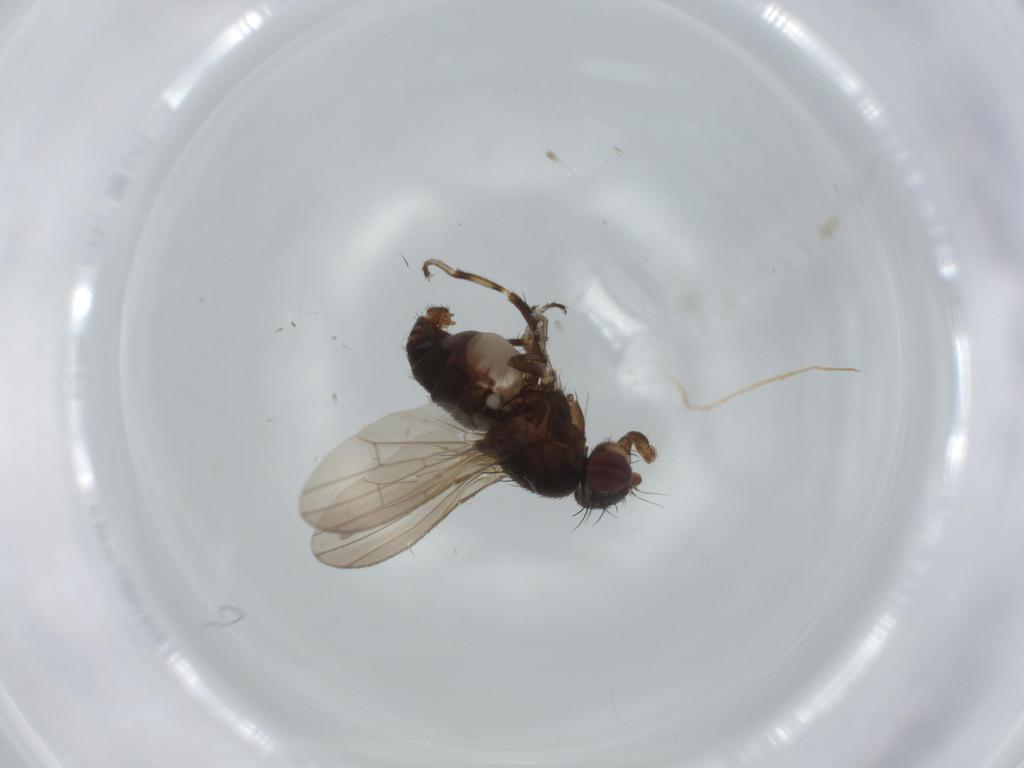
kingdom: Animalia
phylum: Arthropoda
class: Insecta
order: Diptera
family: Heleomyzidae
